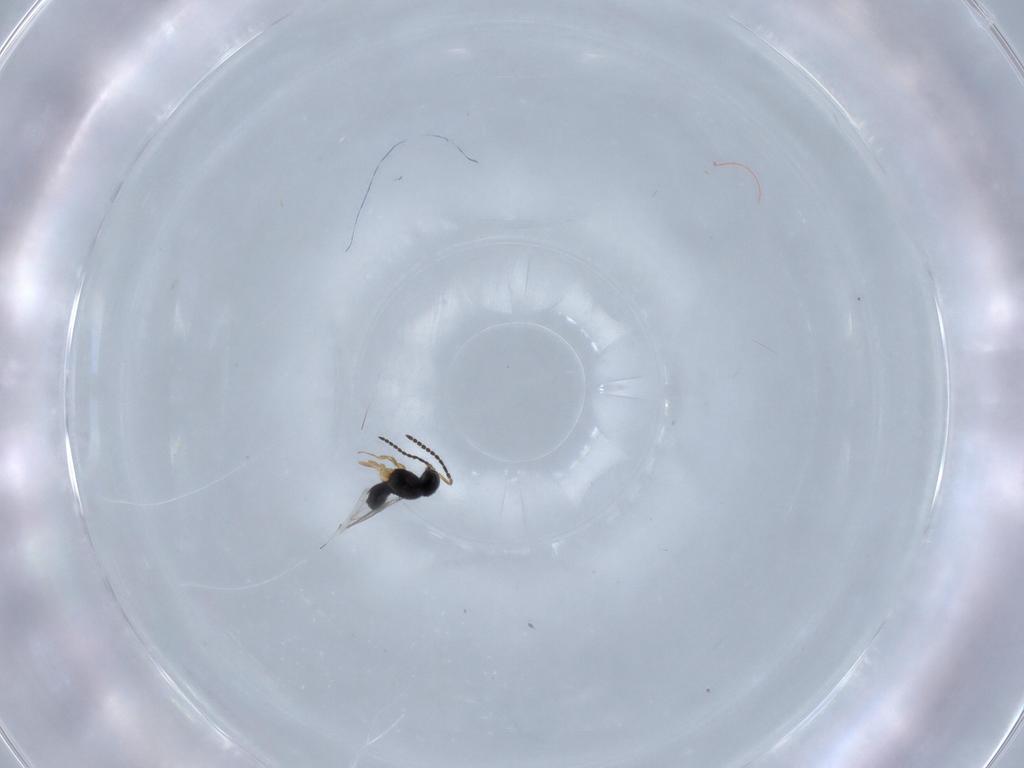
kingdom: Animalia
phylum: Arthropoda
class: Insecta
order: Hymenoptera
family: Scelionidae
